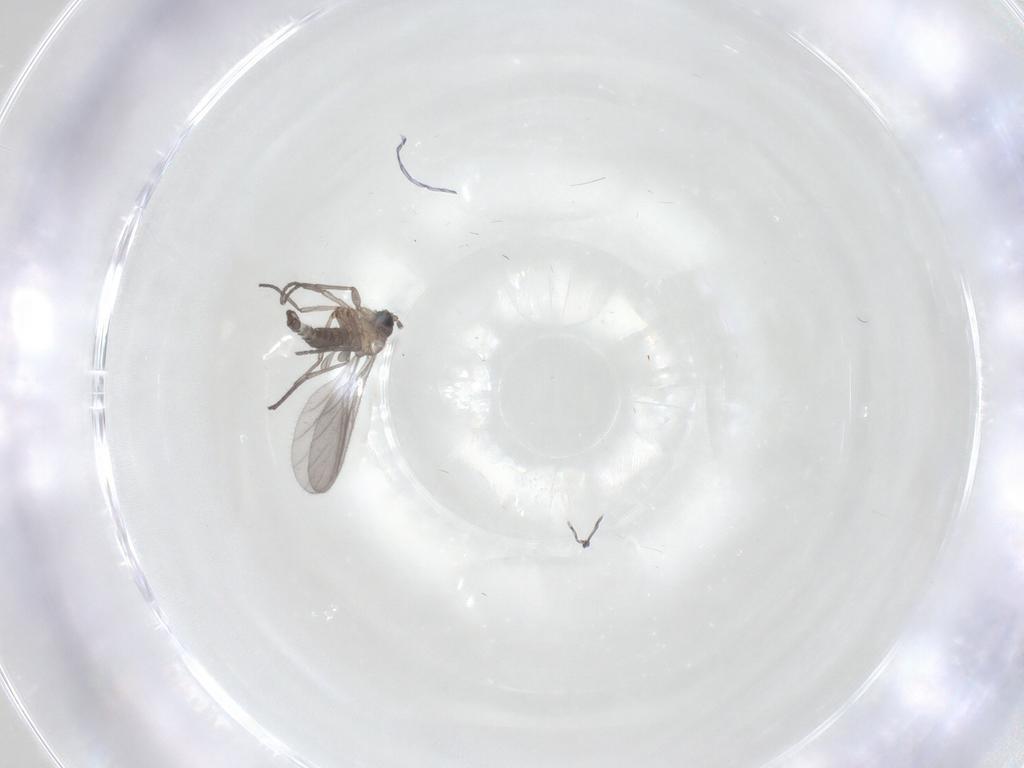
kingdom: Animalia
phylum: Arthropoda
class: Insecta
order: Diptera
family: Sciaridae
